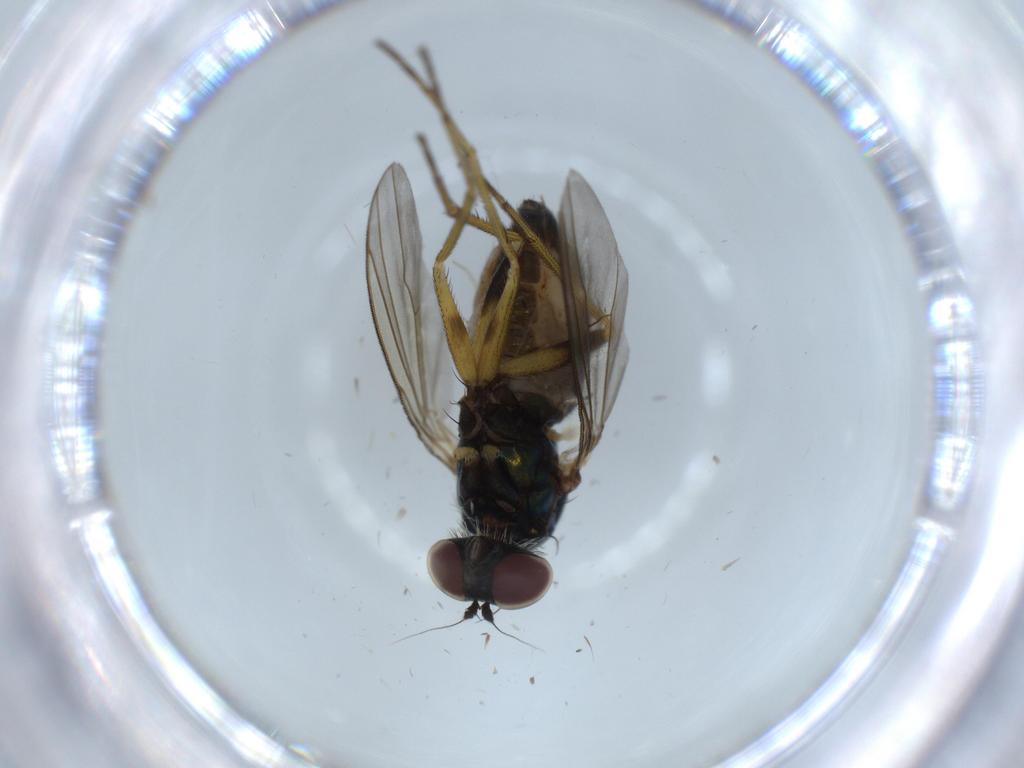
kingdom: Animalia
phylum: Arthropoda
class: Insecta
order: Diptera
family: Dolichopodidae
